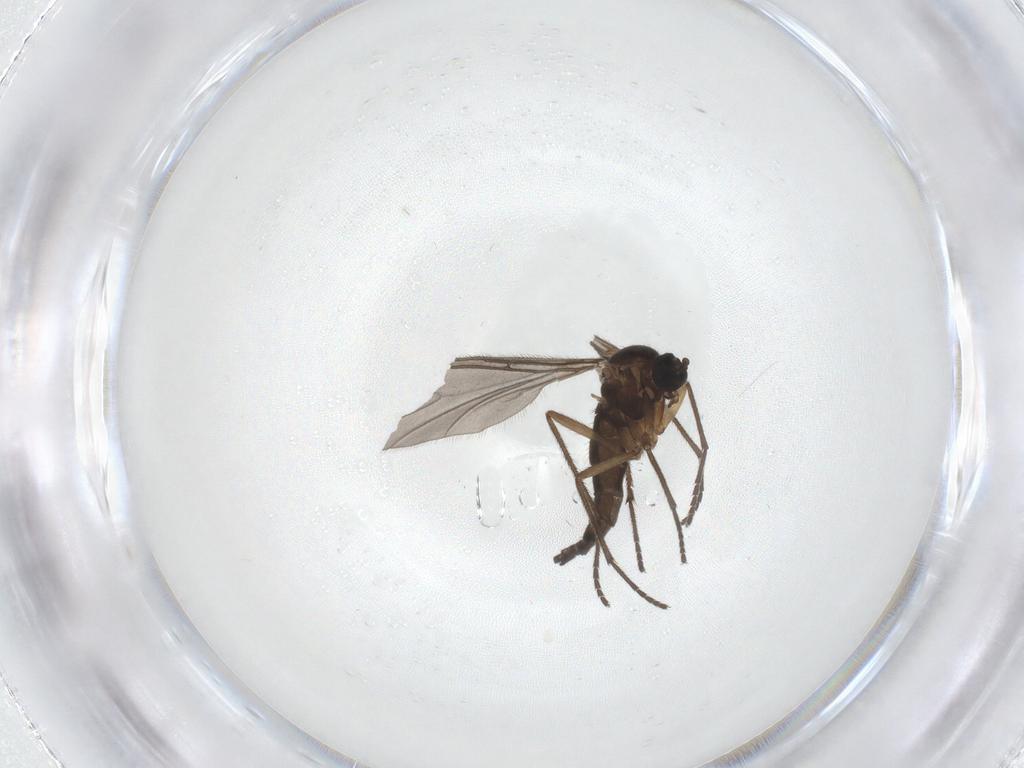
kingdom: Animalia
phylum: Arthropoda
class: Insecta
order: Diptera
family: Sciaridae
